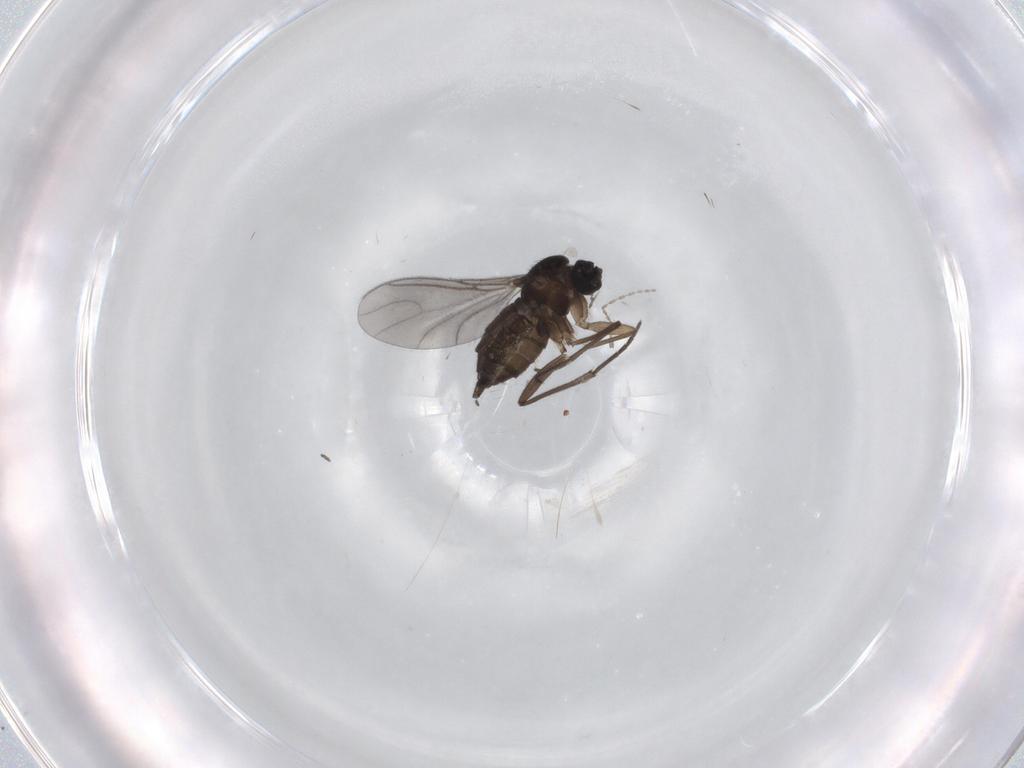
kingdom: Animalia
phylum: Arthropoda
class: Insecta
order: Diptera
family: Sciaridae
